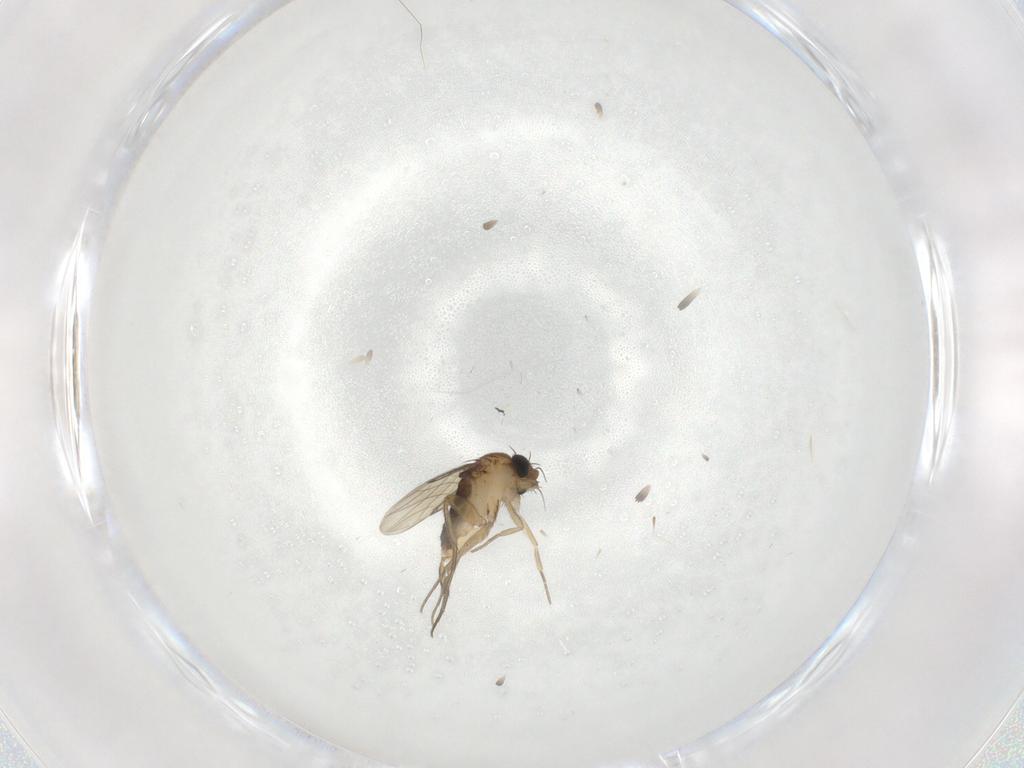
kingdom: Animalia
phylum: Arthropoda
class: Insecta
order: Diptera
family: Phoridae
